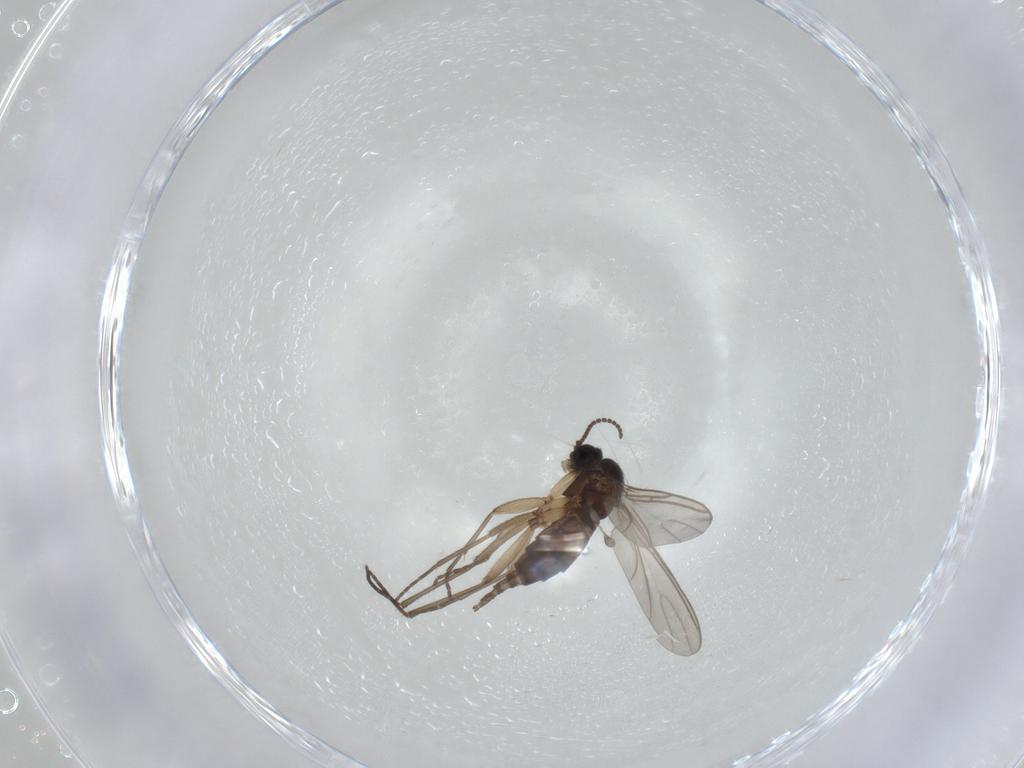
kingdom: Animalia
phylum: Arthropoda
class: Insecta
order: Diptera
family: Sciaridae
